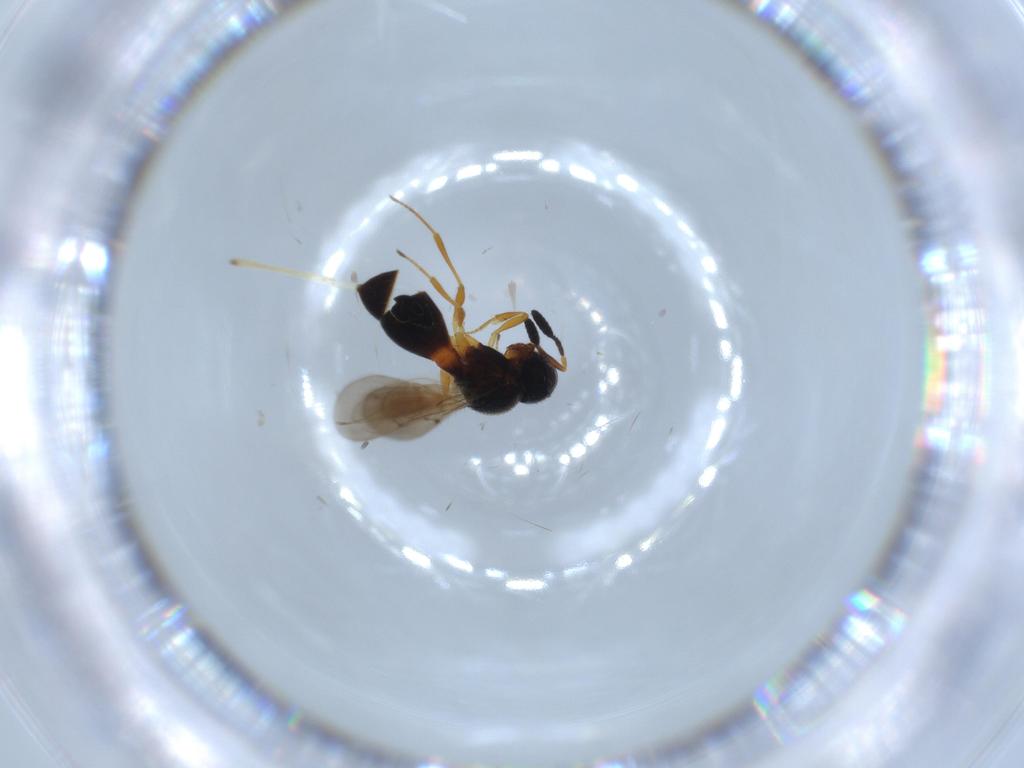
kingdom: Animalia
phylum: Arthropoda
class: Insecta
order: Hymenoptera
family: Scelionidae
